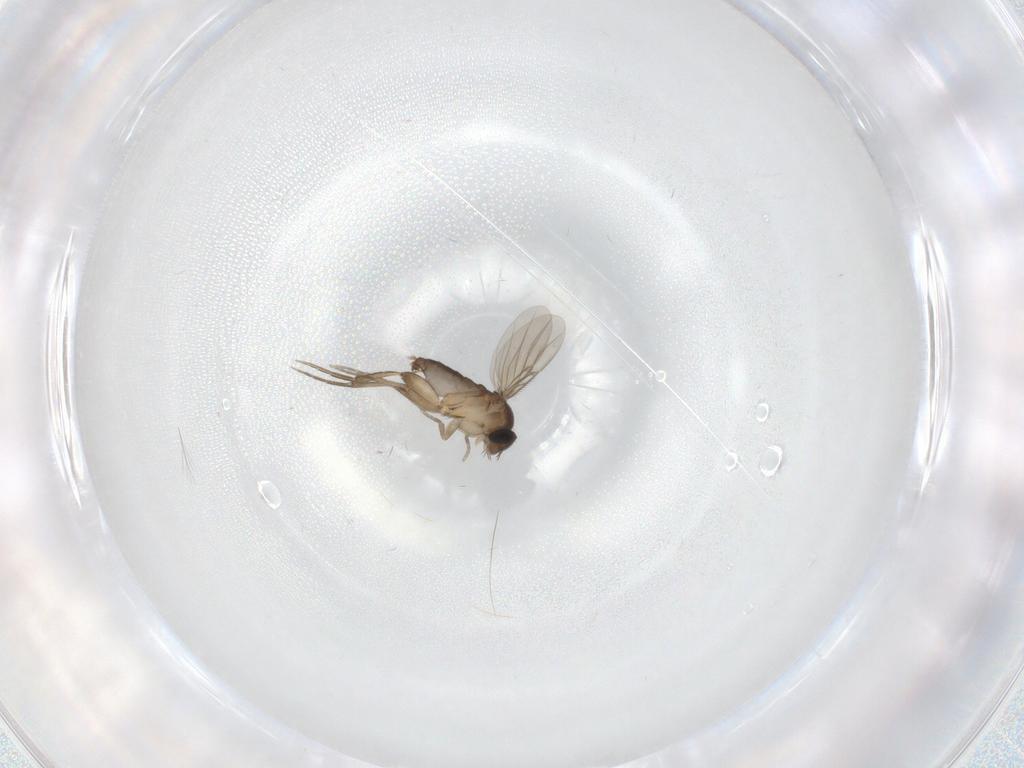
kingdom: Animalia
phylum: Arthropoda
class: Insecta
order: Diptera
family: Phoridae
